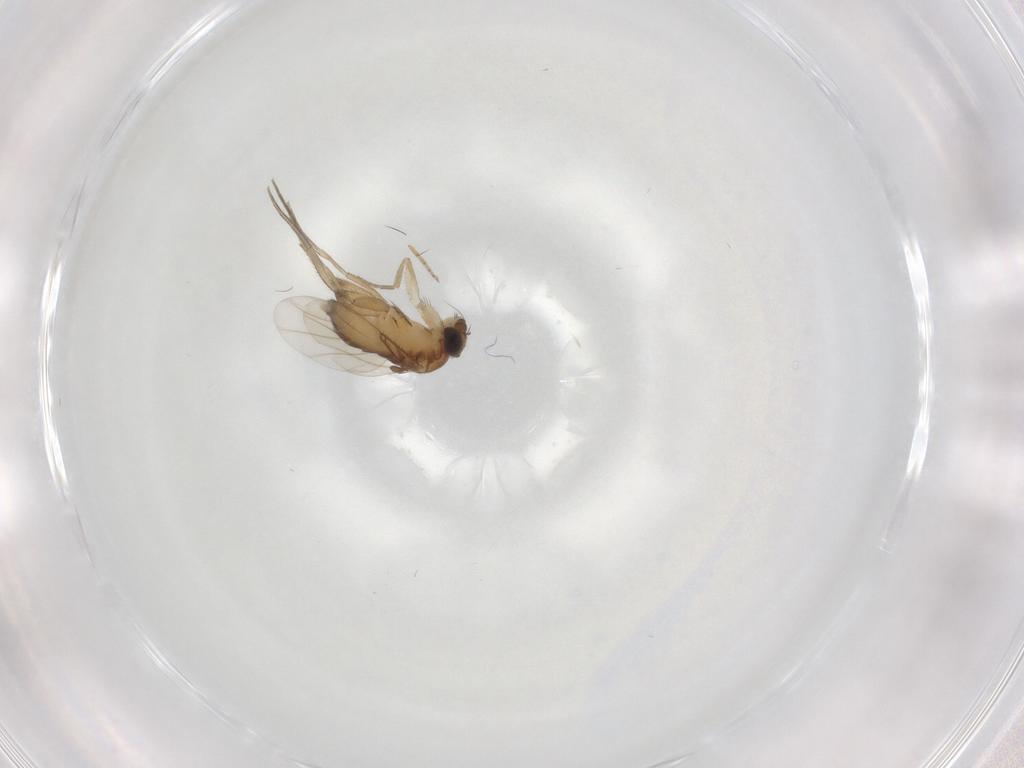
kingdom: Animalia
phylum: Arthropoda
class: Insecta
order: Diptera
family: Phoridae
